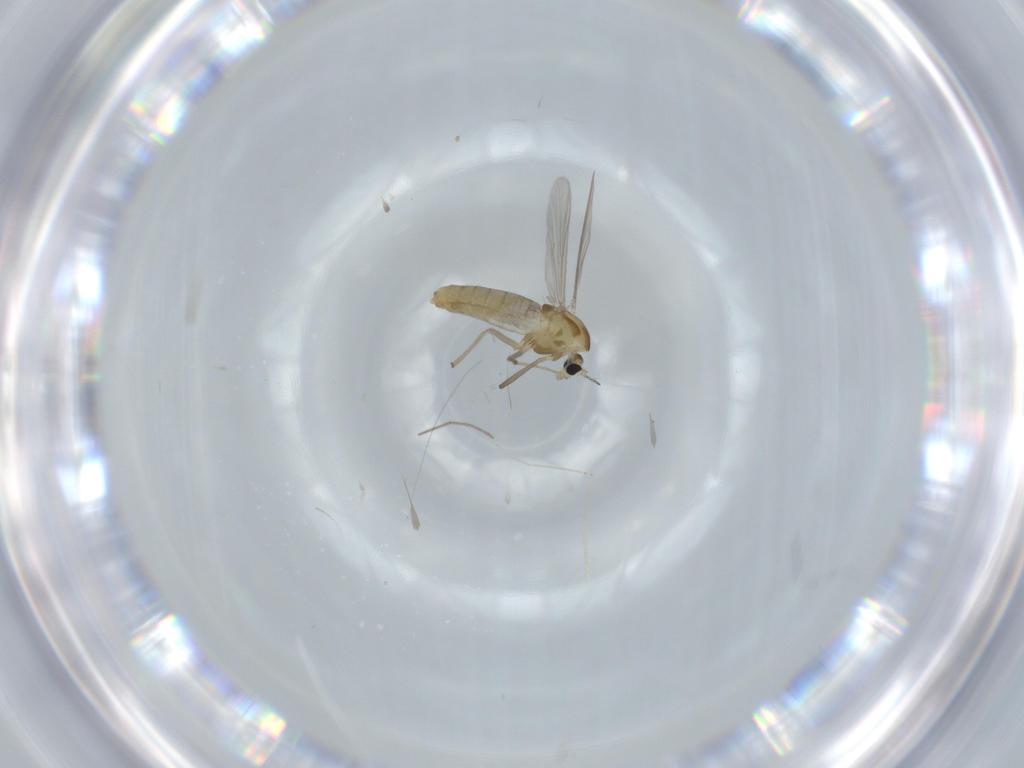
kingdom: Animalia
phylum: Arthropoda
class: Insecta
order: Diptera
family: Chironomidae
